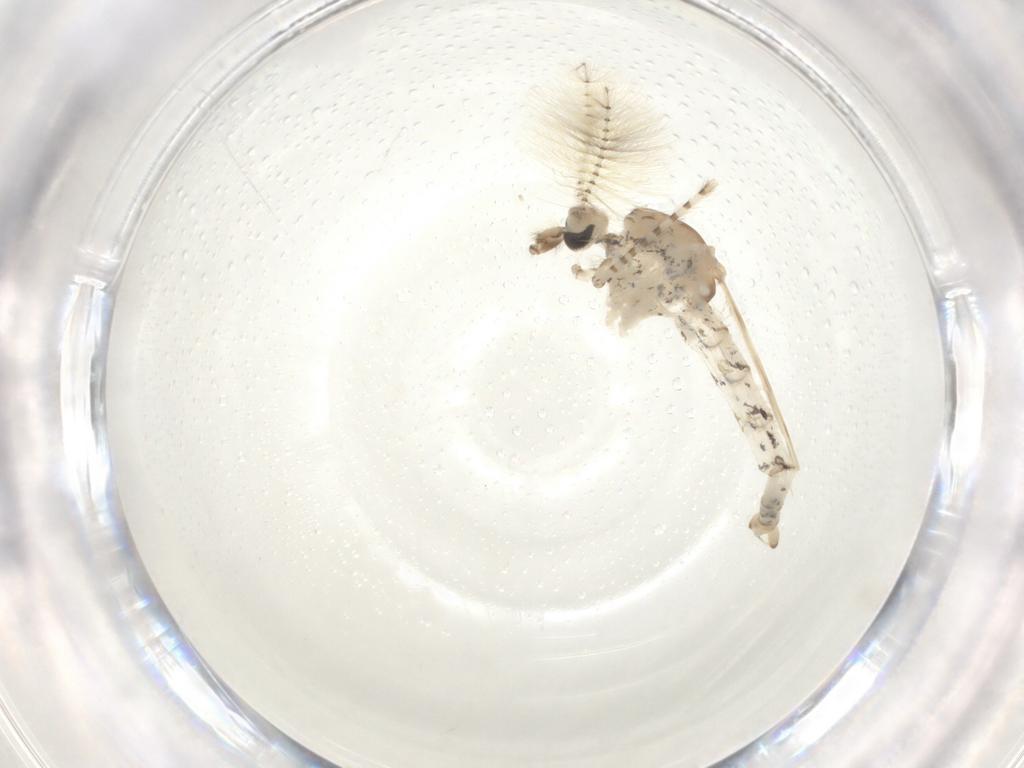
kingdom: Animalia
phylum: Arthropoda
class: Insecta
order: Diptera
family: Chaoboridae
